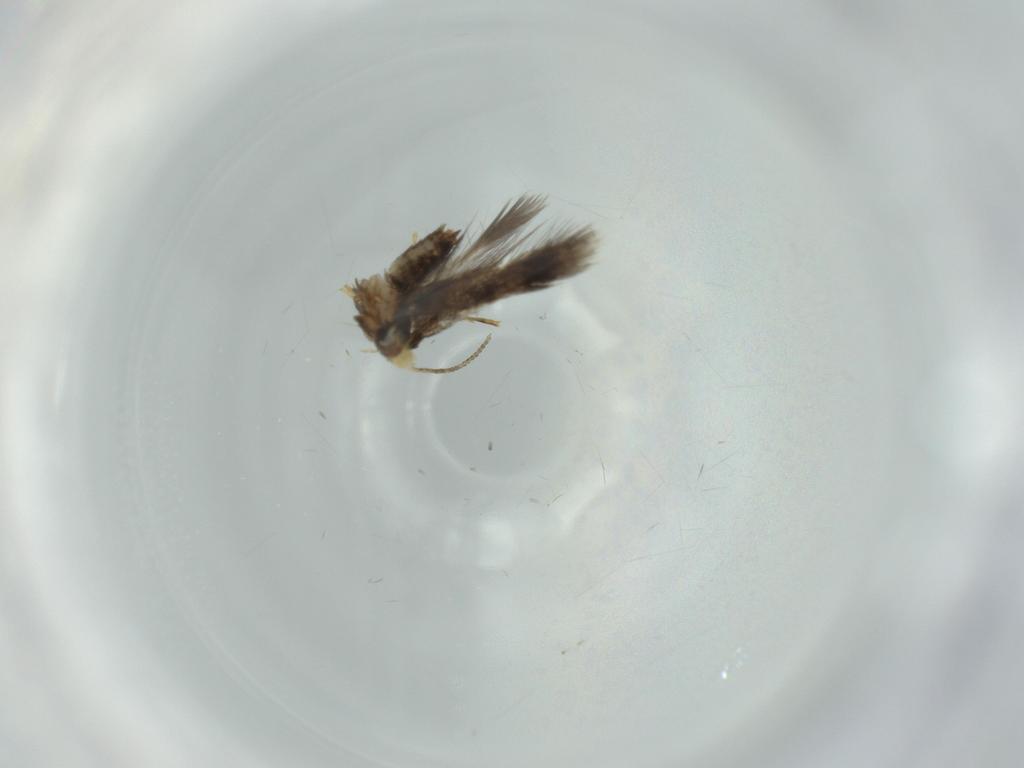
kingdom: Animalia
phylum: Arthropoda
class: Insecta
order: Lepidoptera
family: Nepticulidae
